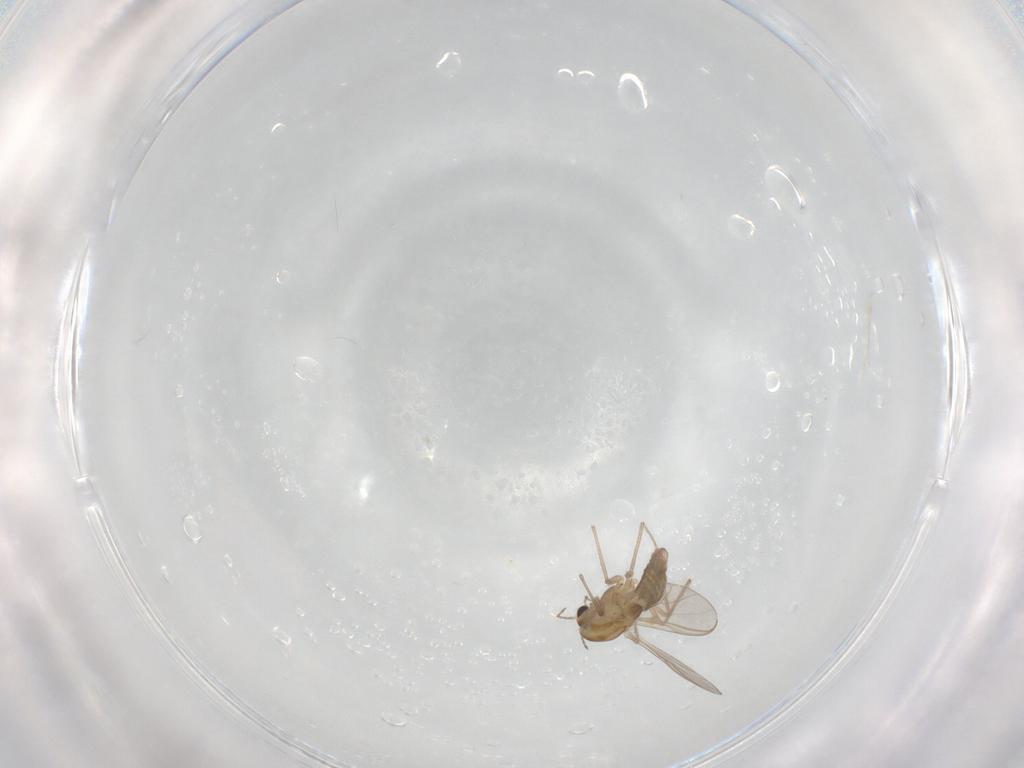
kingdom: Animalia
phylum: Arthropoda
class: Insecta
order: Diptera
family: Chironomidae
